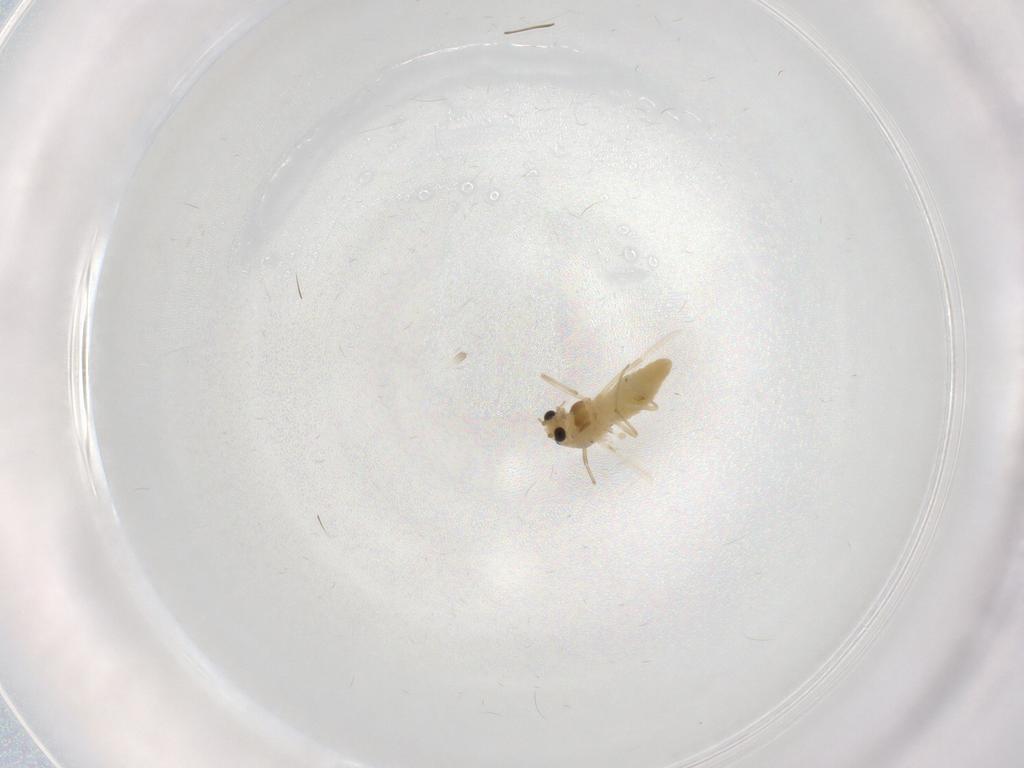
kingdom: Animalia
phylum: Arthropoda
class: Insecta
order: Diptera
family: Chironomidae
